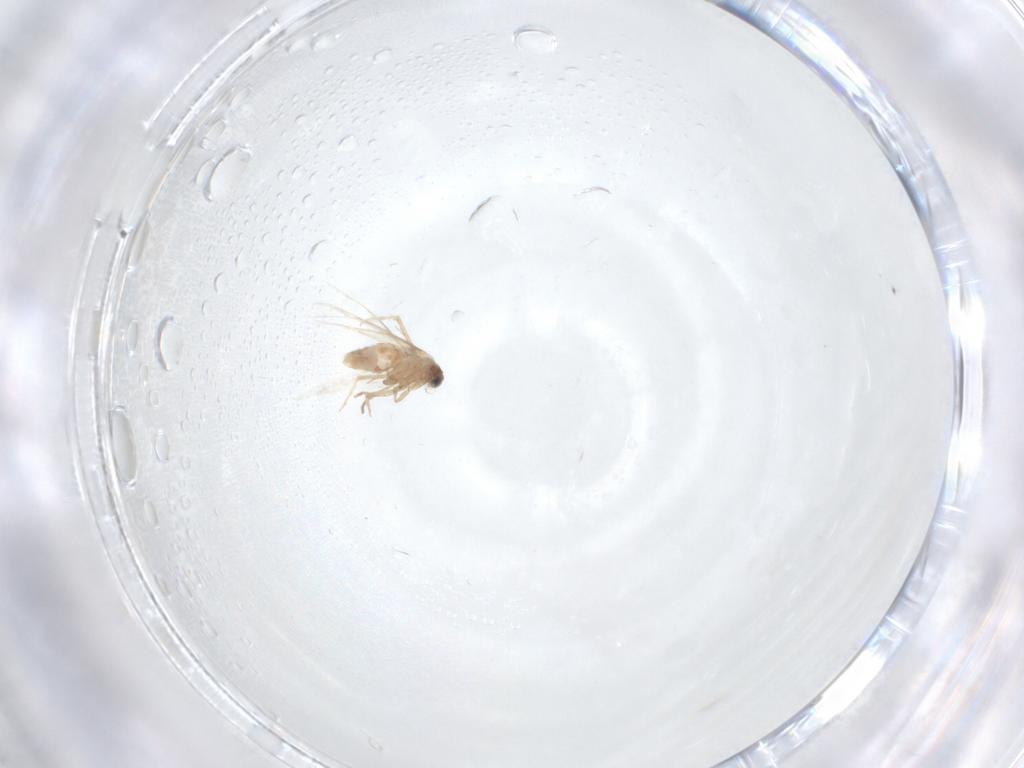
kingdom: Animalia
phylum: Arthropoda
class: Insecta
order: Lepidoptera
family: Nepticulidae
